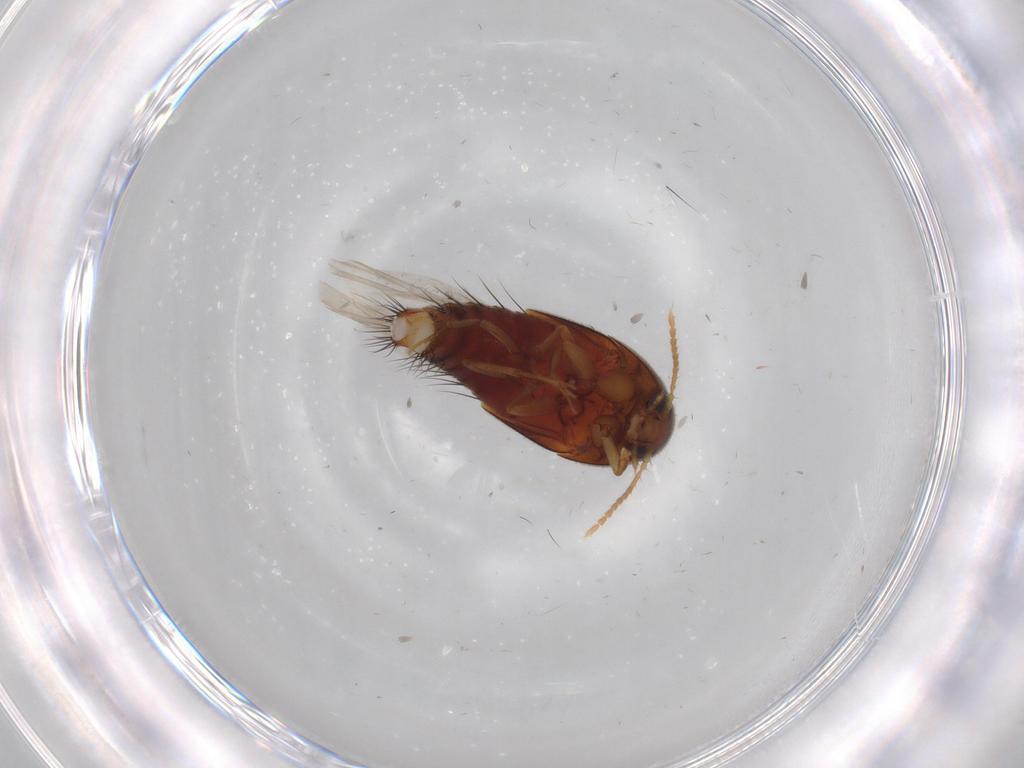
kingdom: Animalia
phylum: Arthropoda
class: Insecta
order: Coleoptera
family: Staphylinidae
